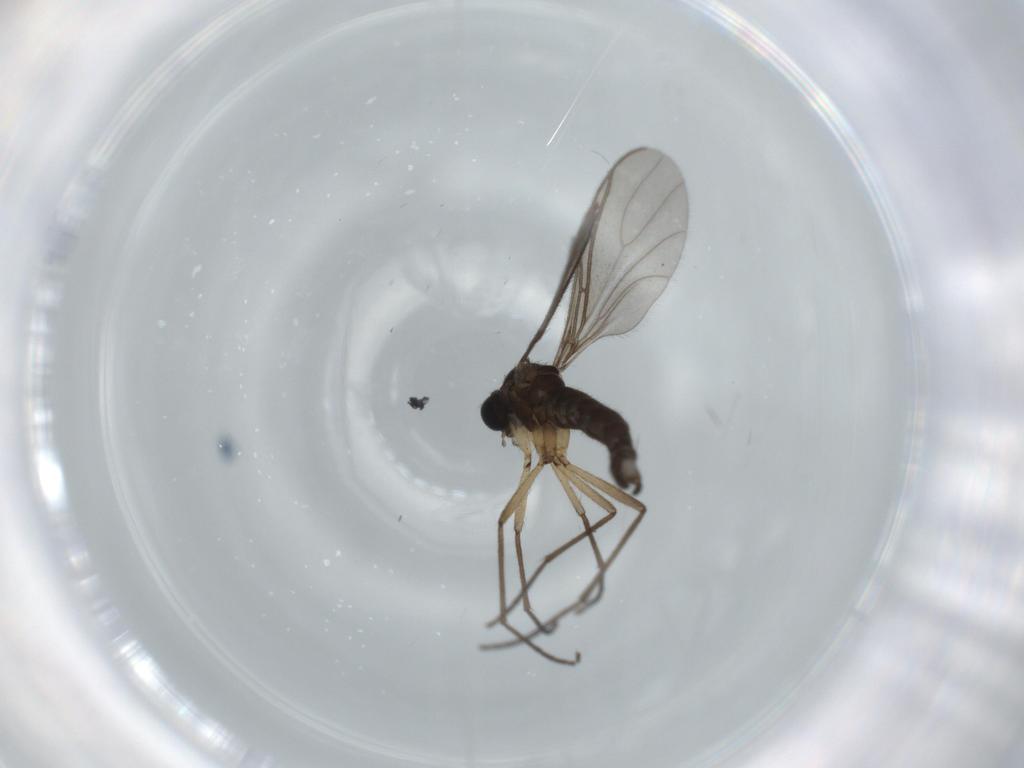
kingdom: Animalia
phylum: Arthropoda
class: Insecta
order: Diptera
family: Sciaridae
